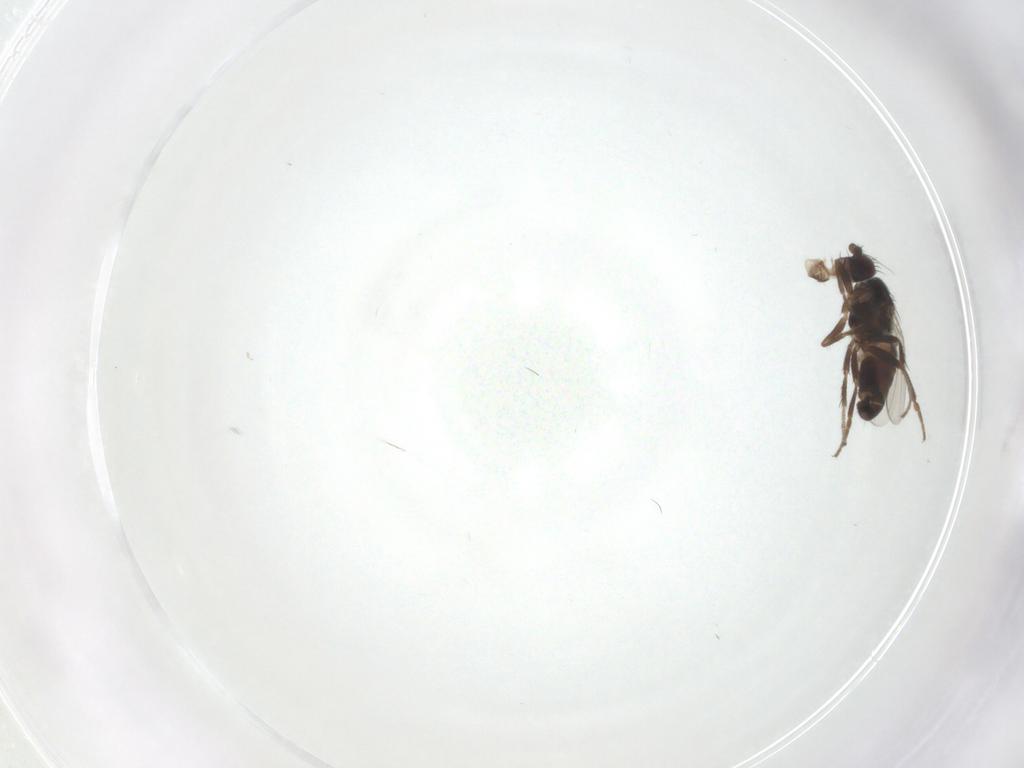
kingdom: Animalia
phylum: Arthropoda
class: Insecta
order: Diptera
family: Sphaeroceridae
